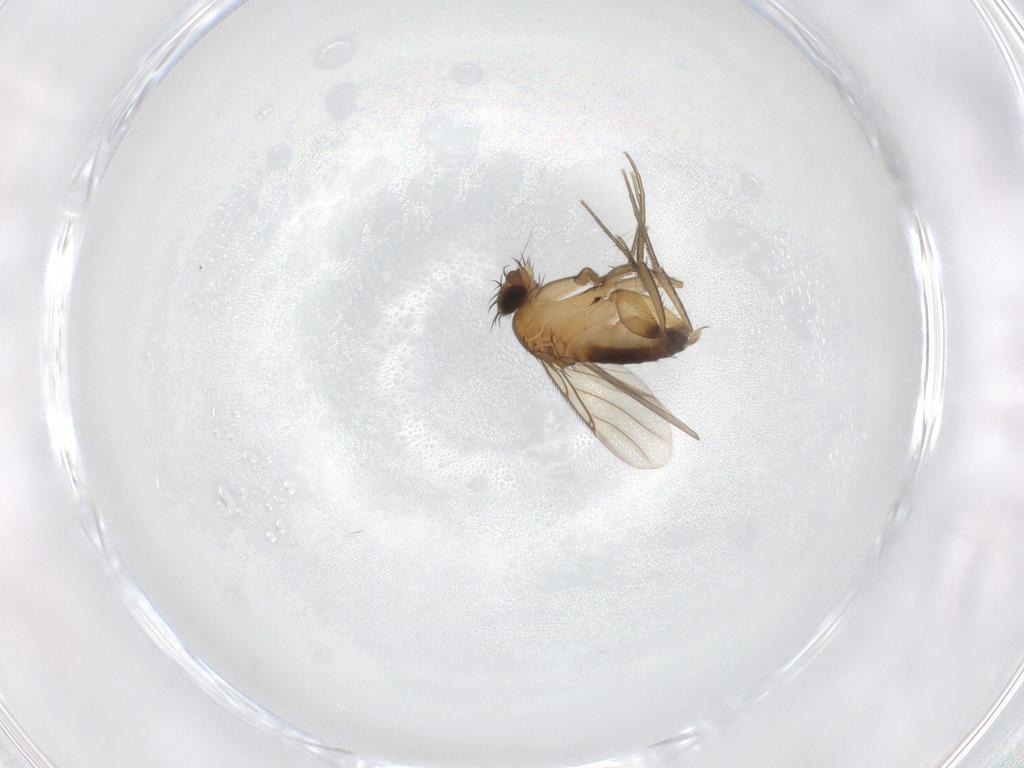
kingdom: Animalia
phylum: Arthropoda
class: Insecta
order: Diptera
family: Phoridae
